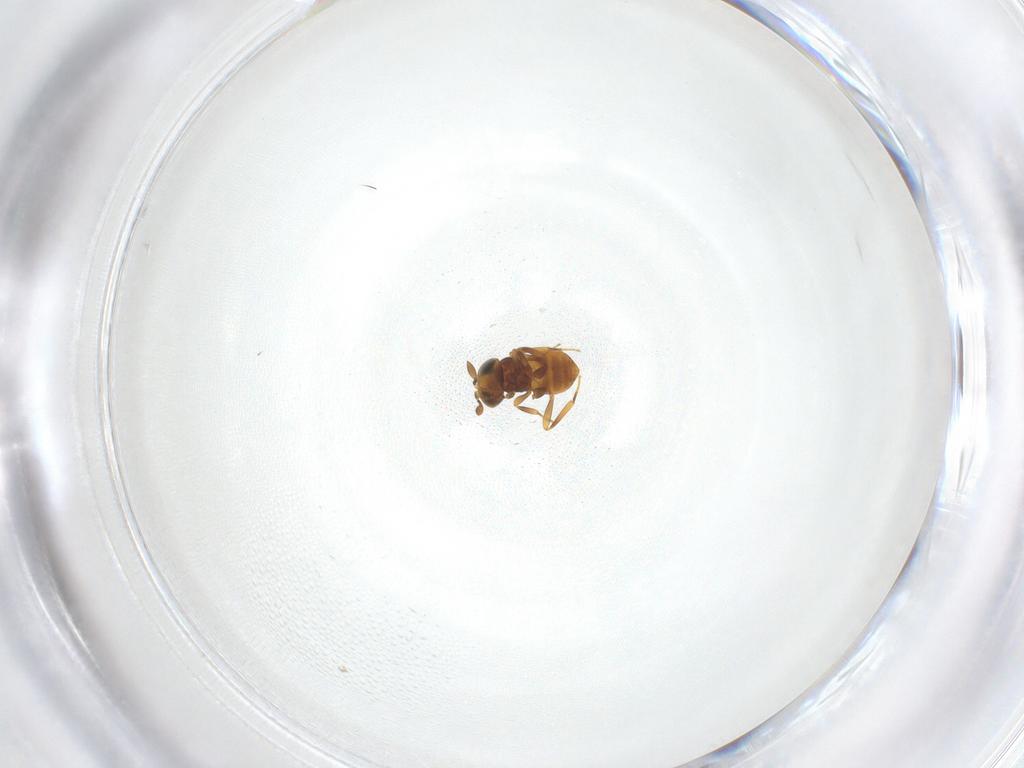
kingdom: Animalia
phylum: Arthropoda
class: Insecta
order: Hymenoptera
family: Scelionidae
